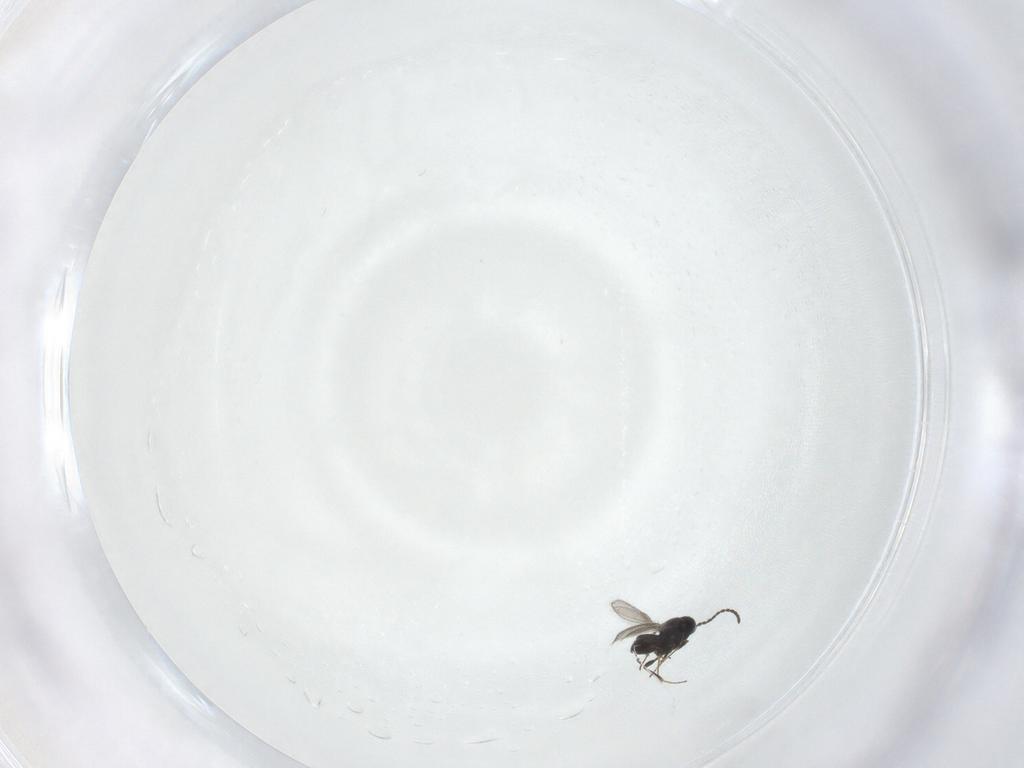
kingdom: Animalia
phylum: Arthropoda
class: Insecta
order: Hymenoptera
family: Scelionidae
